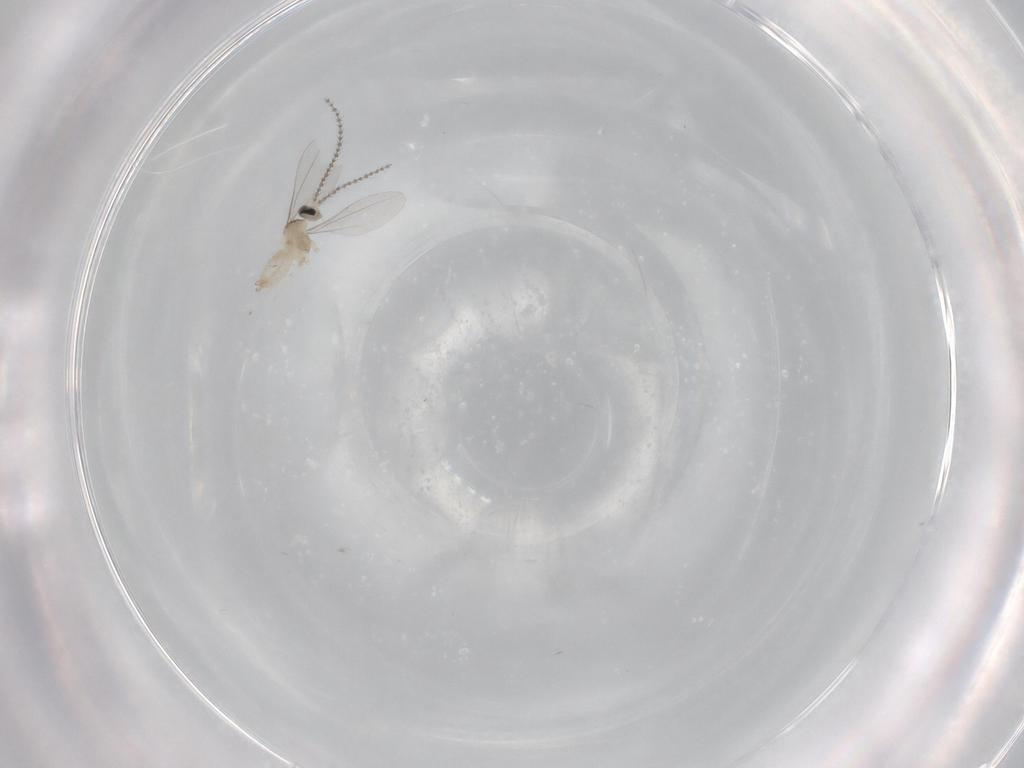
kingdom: Animalia
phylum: Arthropoda
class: Insecta
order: Diptera
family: Cecidomyiidae
